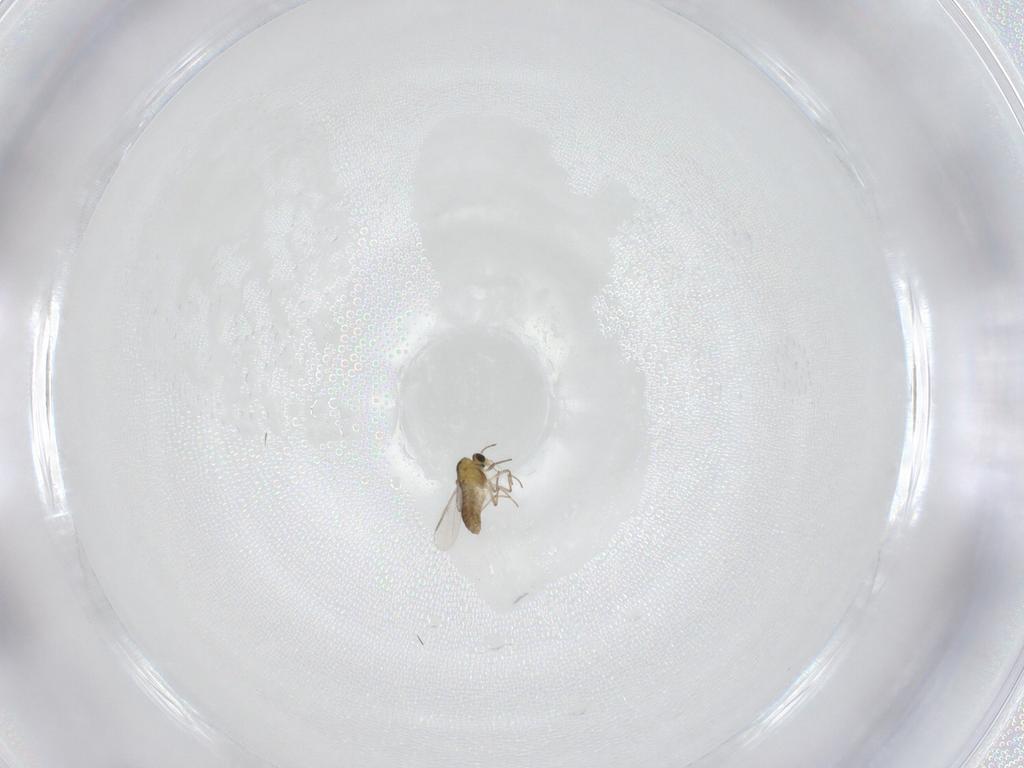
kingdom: Animalia
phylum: Arthropoda
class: Insecta
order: Diptera
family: Chironomidae
